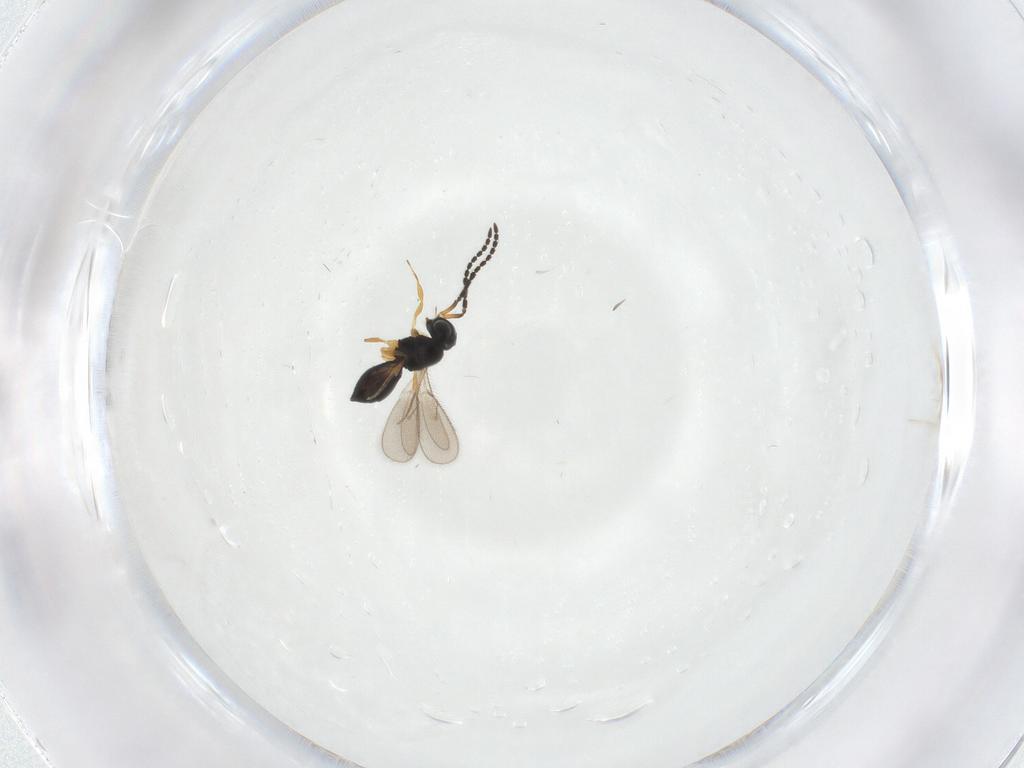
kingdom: Animalia
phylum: Arthropoda
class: Insecta
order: Hymenoptera
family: Scelionidae
